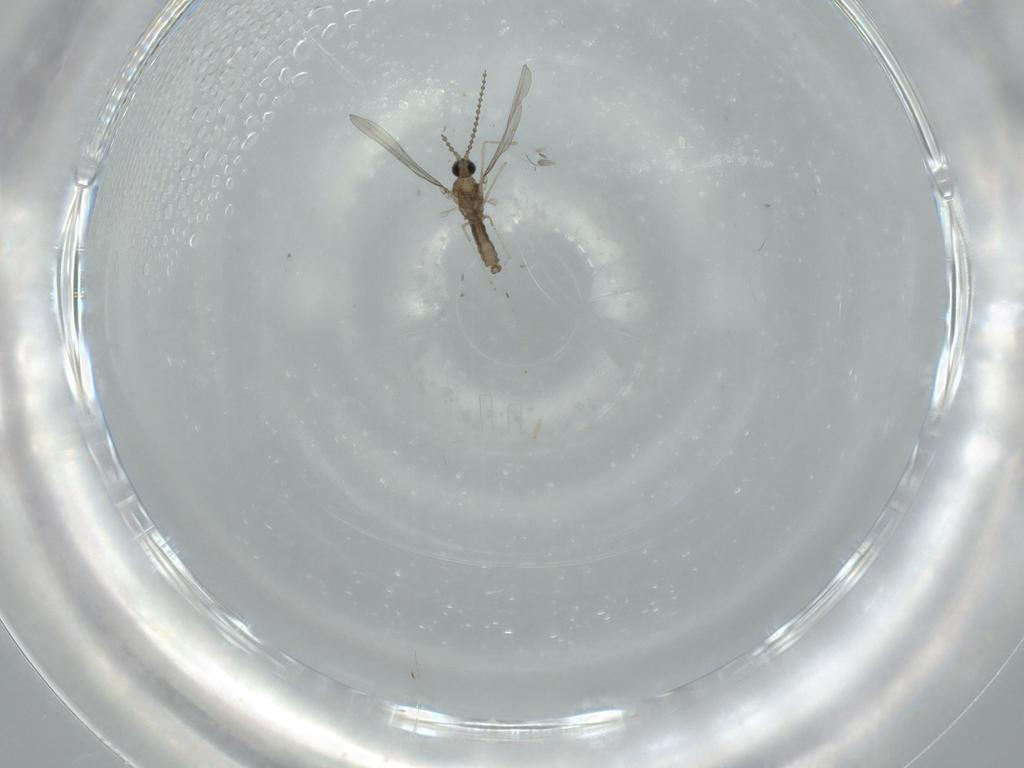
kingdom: Animalia
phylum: Arthropoda
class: Insecta
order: Diptera
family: Cecidomyiidae
